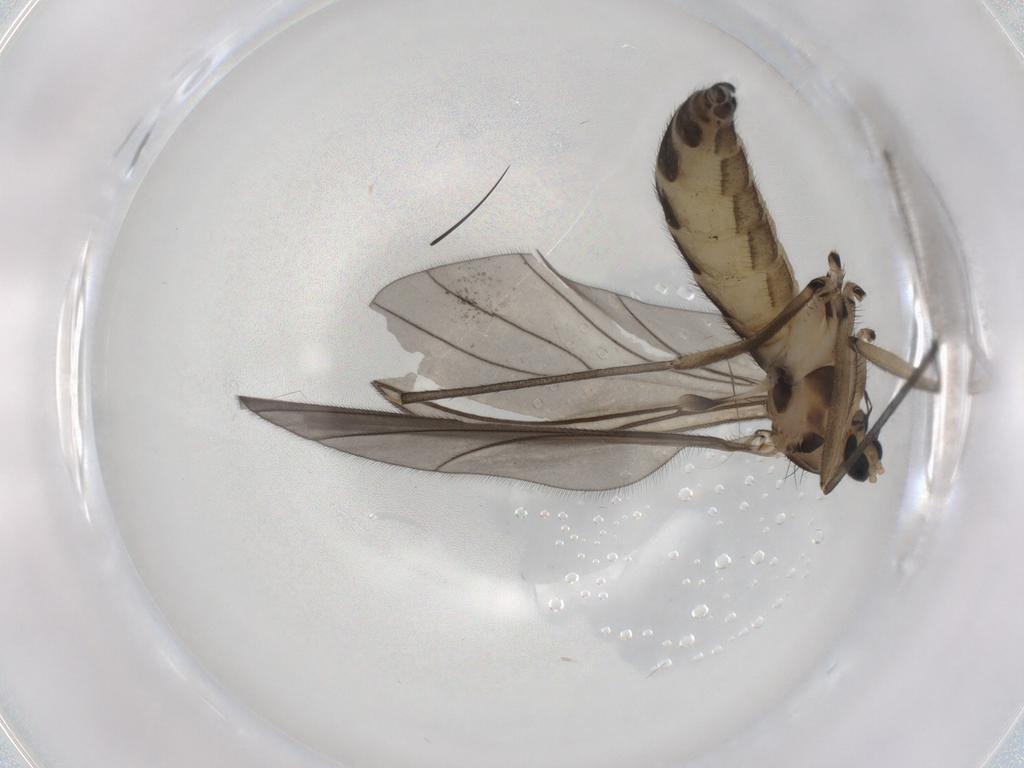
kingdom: Animalia
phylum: Arthropoda
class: Insecta
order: Diptera
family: Sciaridae
